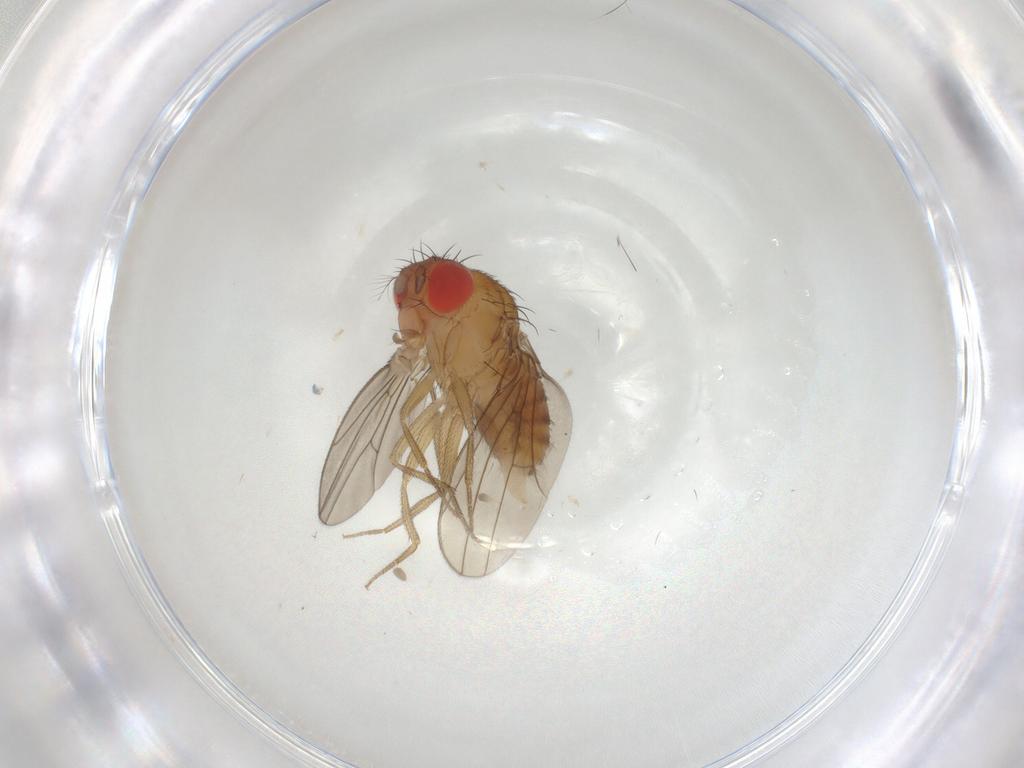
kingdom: Animalia
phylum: Arthropoda
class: Insecta
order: Diptera
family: Drosophilidae
